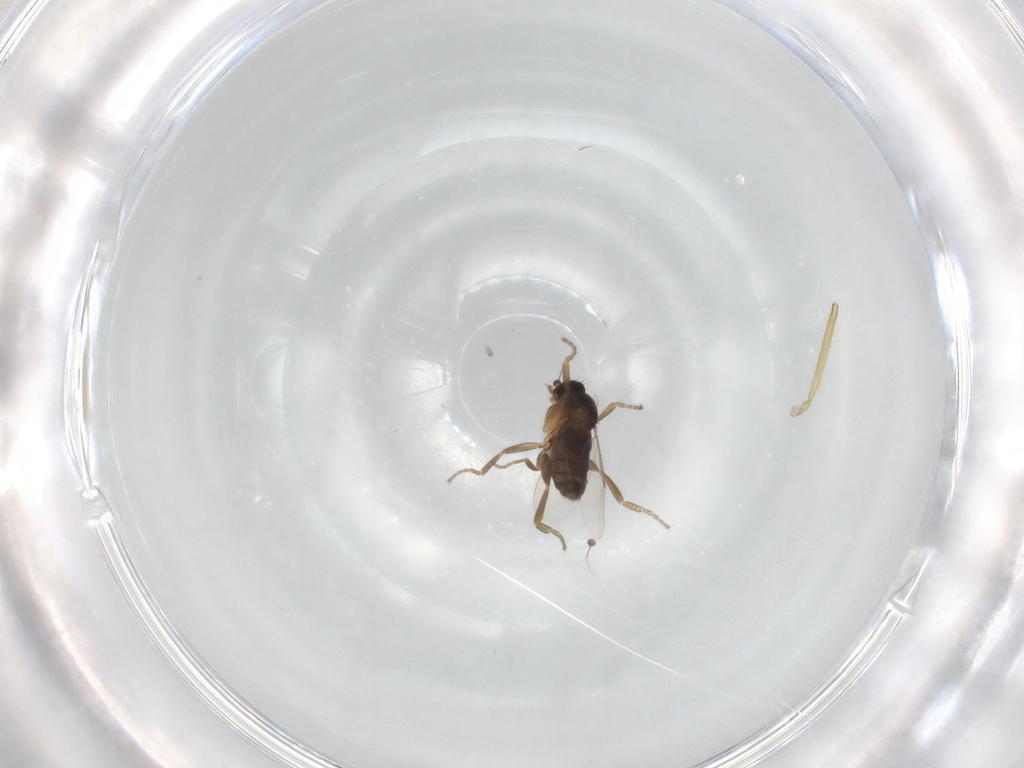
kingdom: Animalia
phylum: Arthropoda
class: Insecta
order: Diptera
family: Phoridae
